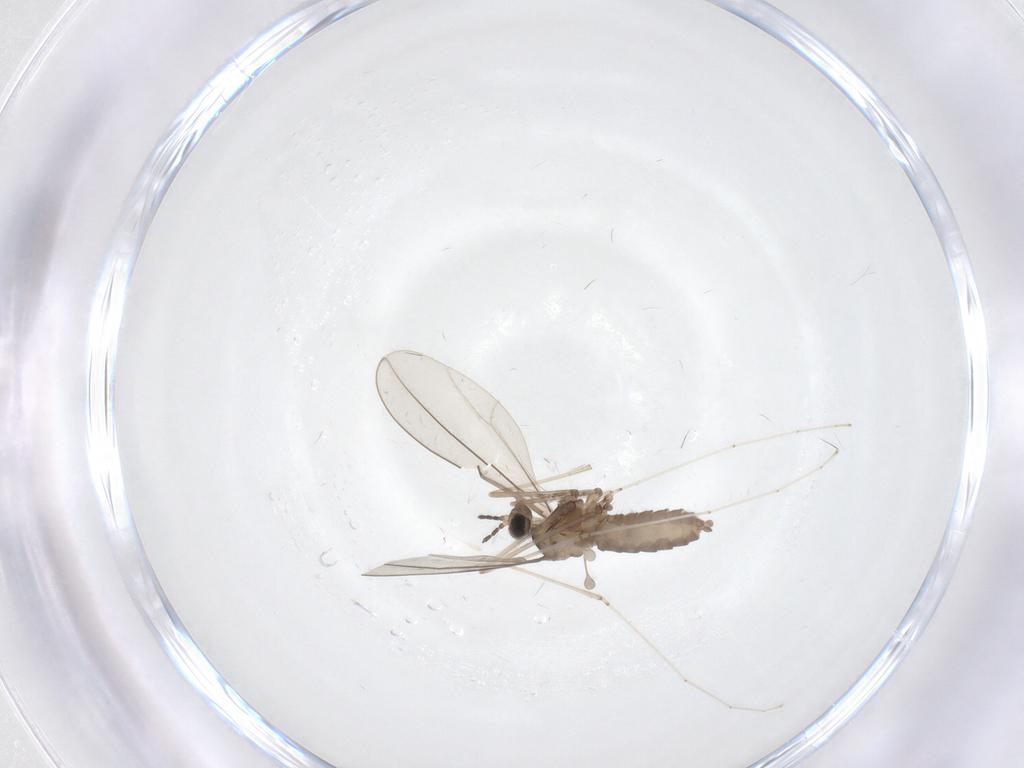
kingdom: Animalia
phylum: Arthropoda
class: Insecta
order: Diptera
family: Cecidomyiidae
